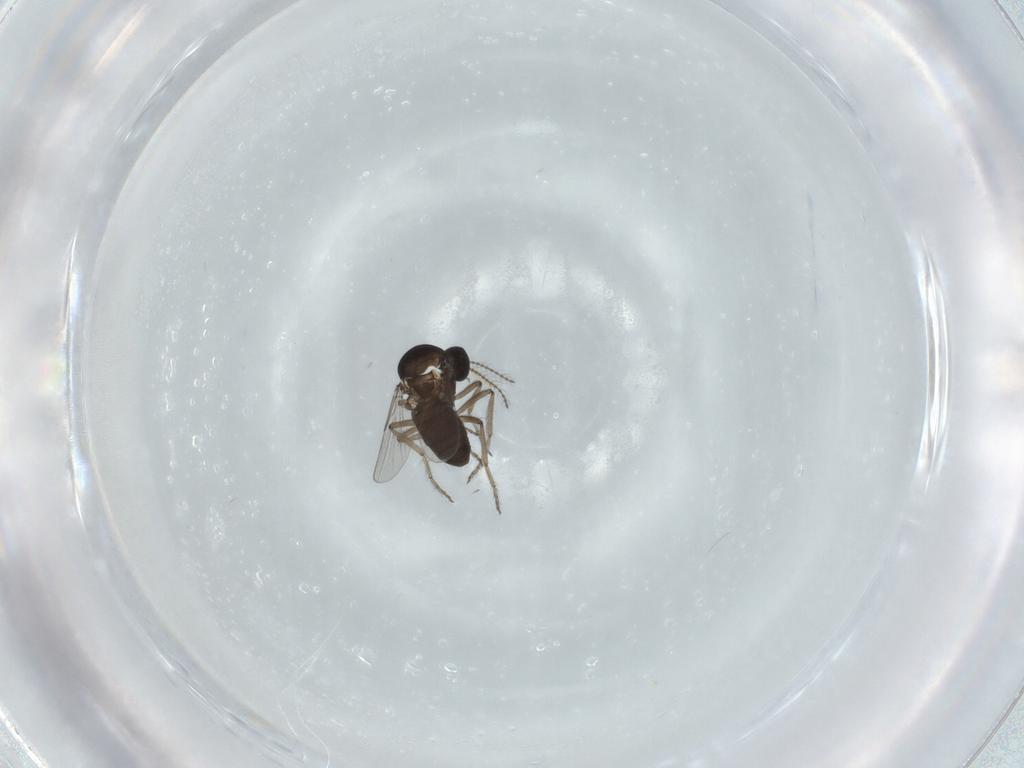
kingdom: Animalia
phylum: Arthropoda
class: Insecta
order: Diptera
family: Ceratopogonidae
